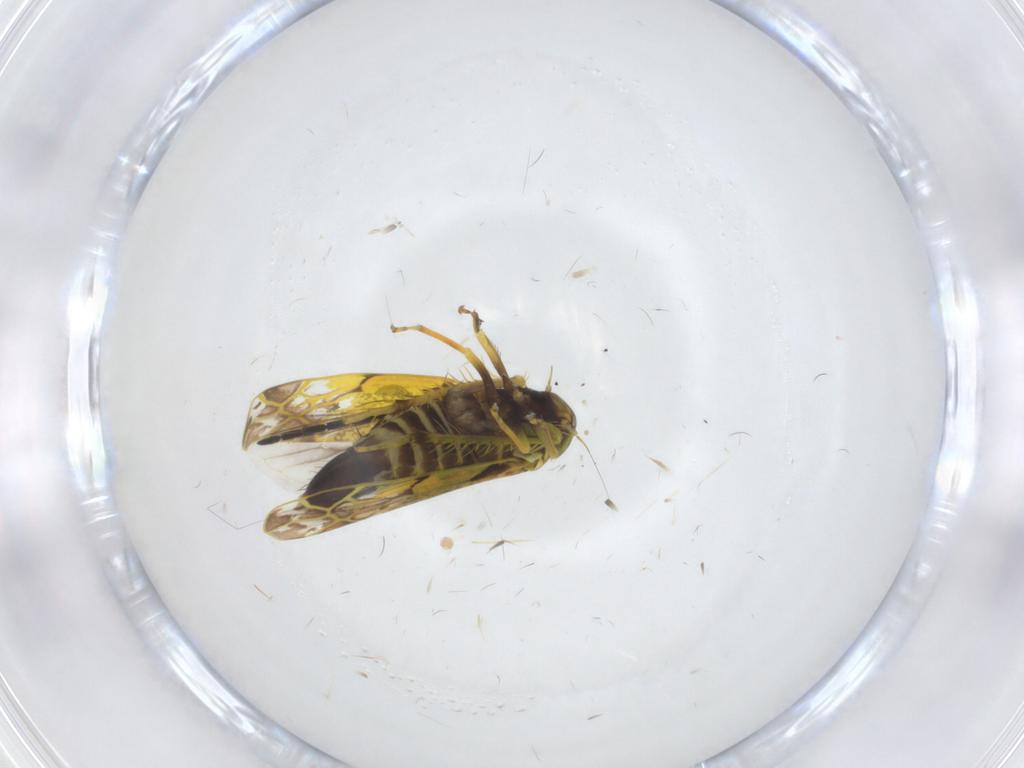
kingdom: Animalia
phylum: Arthropoda
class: Insecta
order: Hemiptera
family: Cicadellidae
